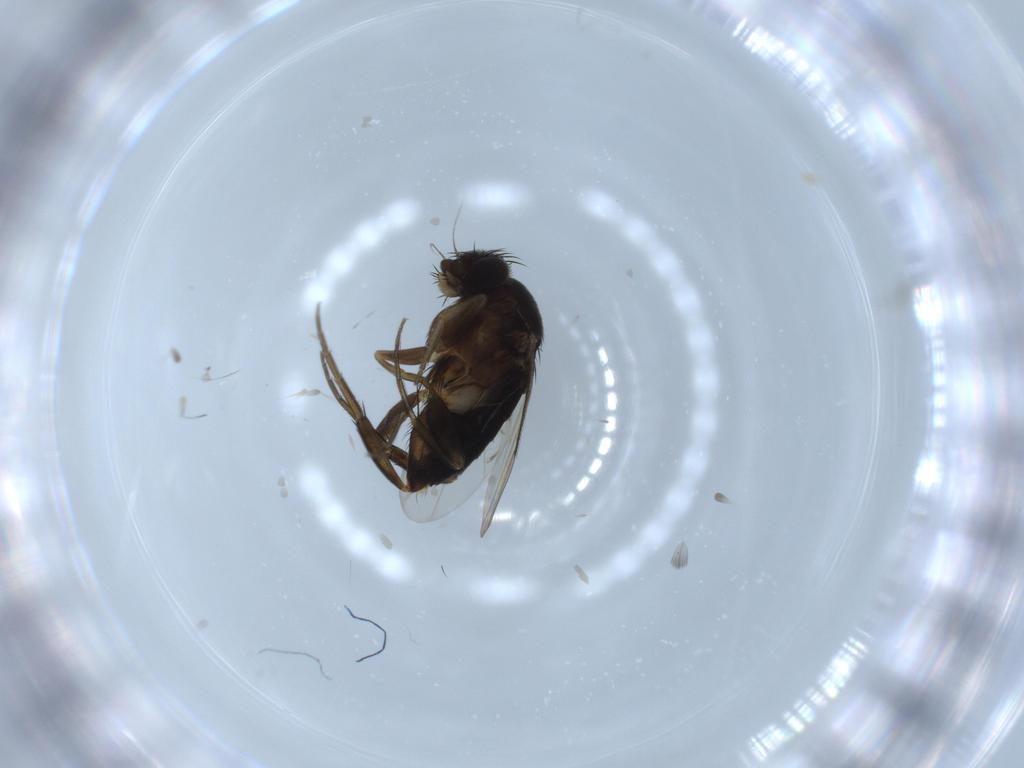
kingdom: Animalia
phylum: Arthropoda
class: Insecta
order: Diptera
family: Phoridae
